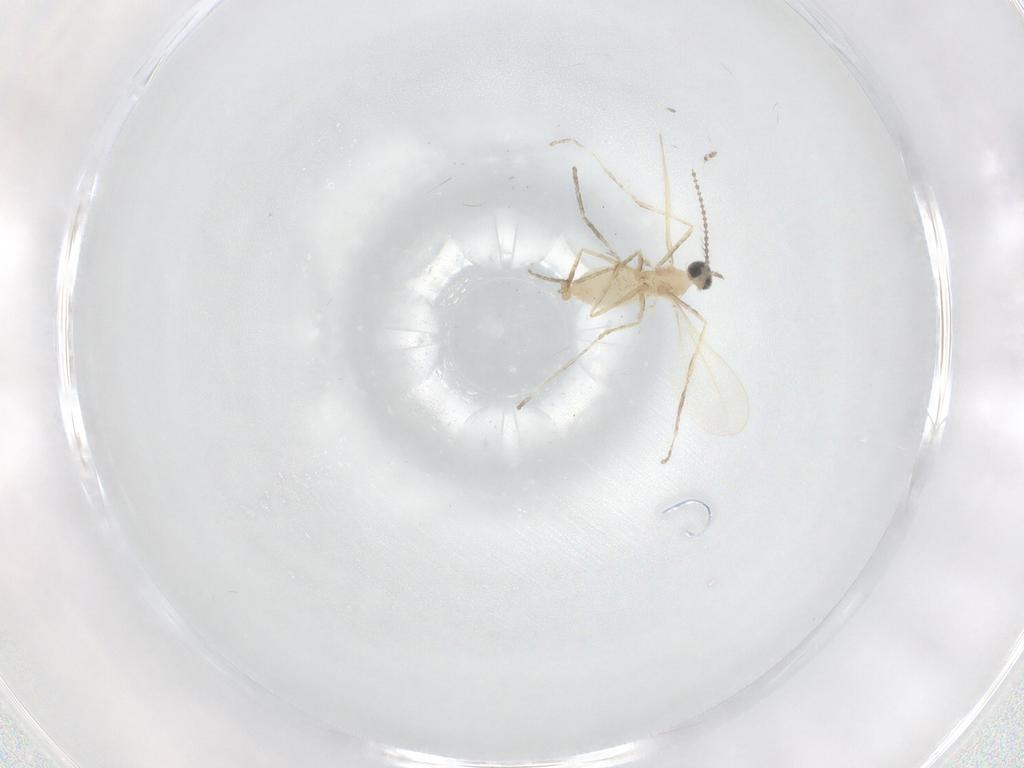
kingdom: Animalia
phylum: Arthropoda
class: Insecta
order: Diptera
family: Cecidomyiidae
